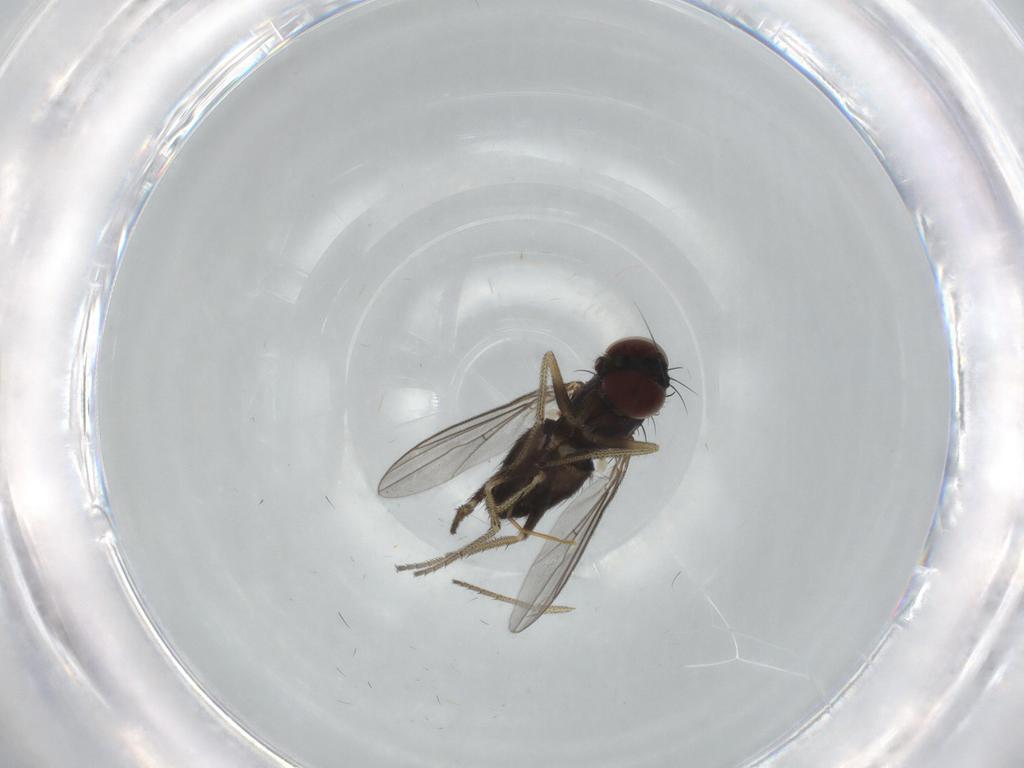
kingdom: Animalia
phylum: Arthropoda
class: Insecta
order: Diptera
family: Dolichopodidae
